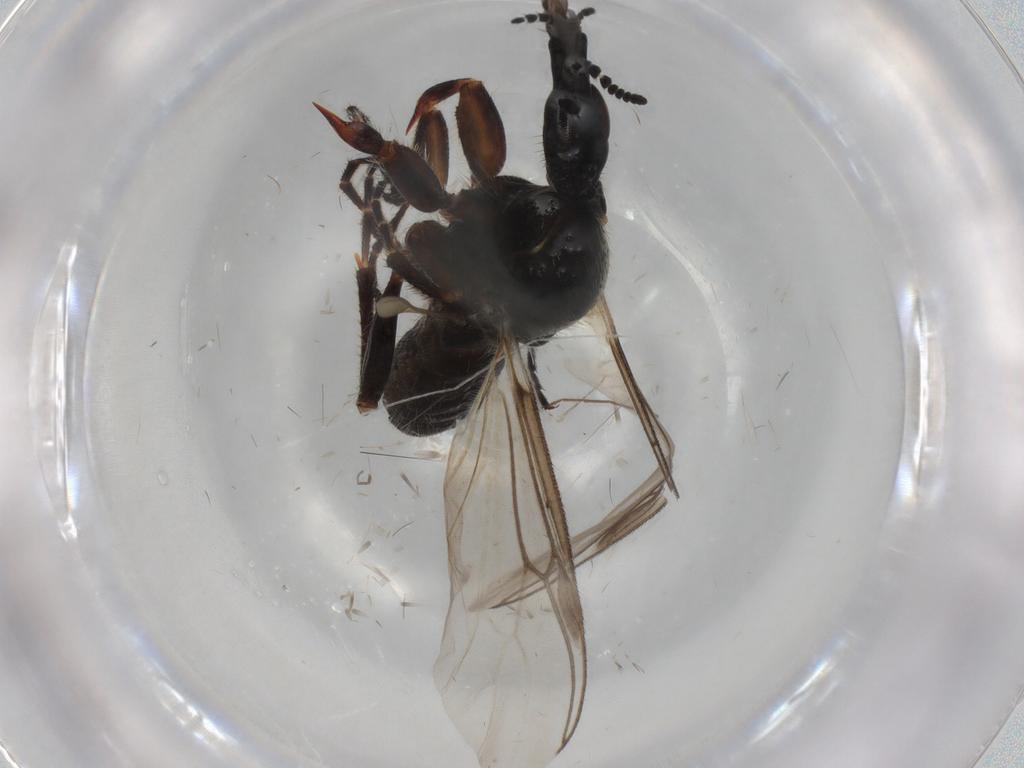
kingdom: Animalia
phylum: Arthropoda
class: Insecta
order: Diptera
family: Bibionidae
